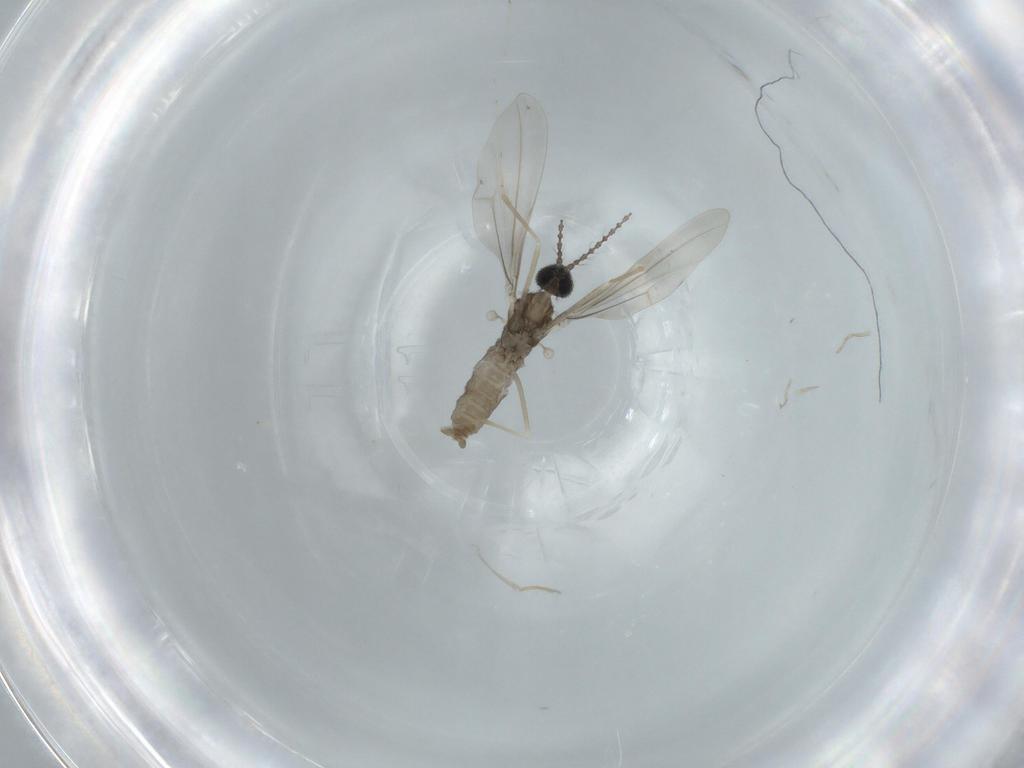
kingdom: Animalia
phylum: Arthropoda
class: Insecta
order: Diptera
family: Cecidomyiidae
